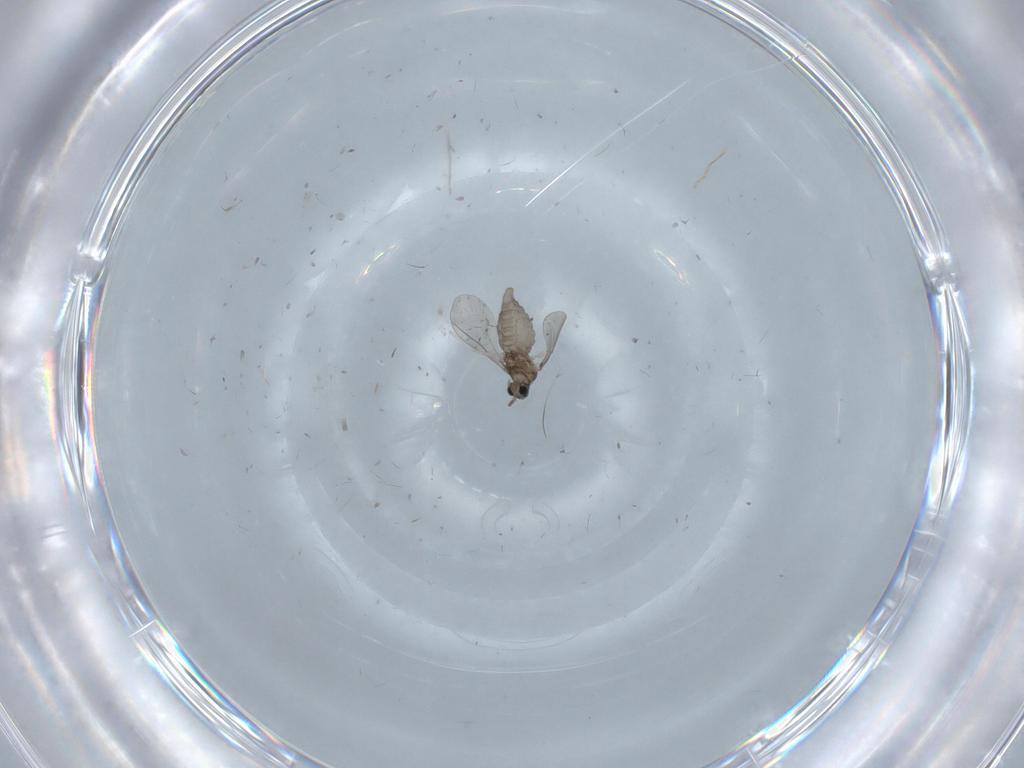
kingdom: Animalia
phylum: Arthropoda
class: Insecta
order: Diptera
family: Cecidomyiidae
